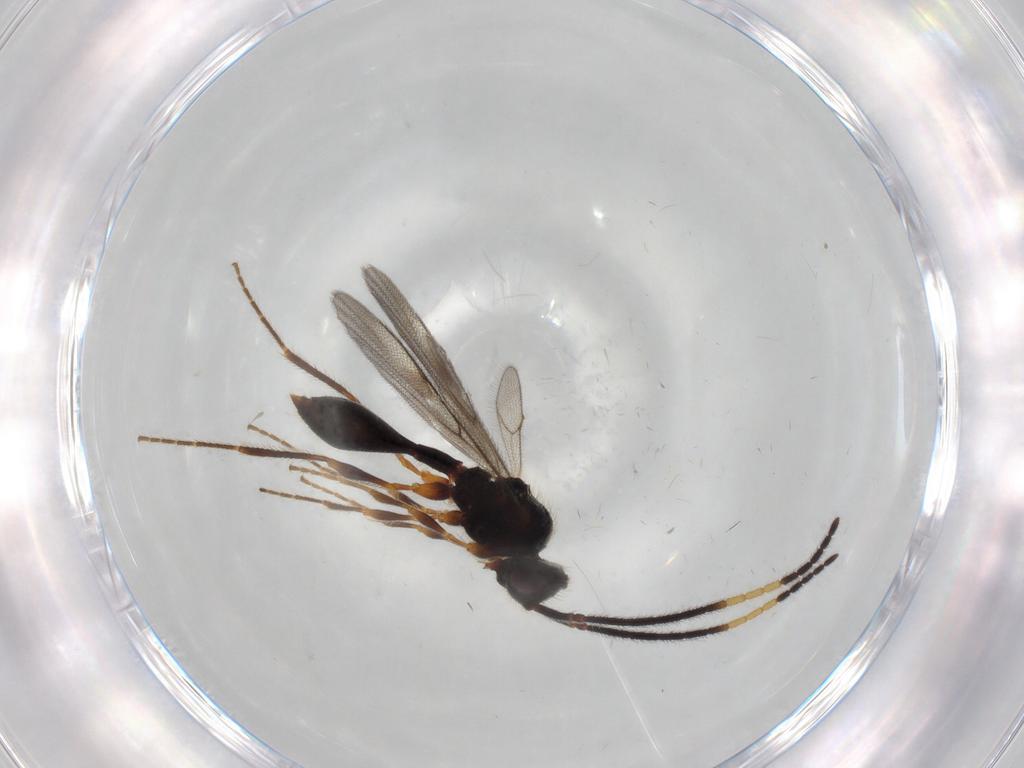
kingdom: Animalia
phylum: Arthropoda
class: Insecta
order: Hymenoptera
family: Diapriidae
